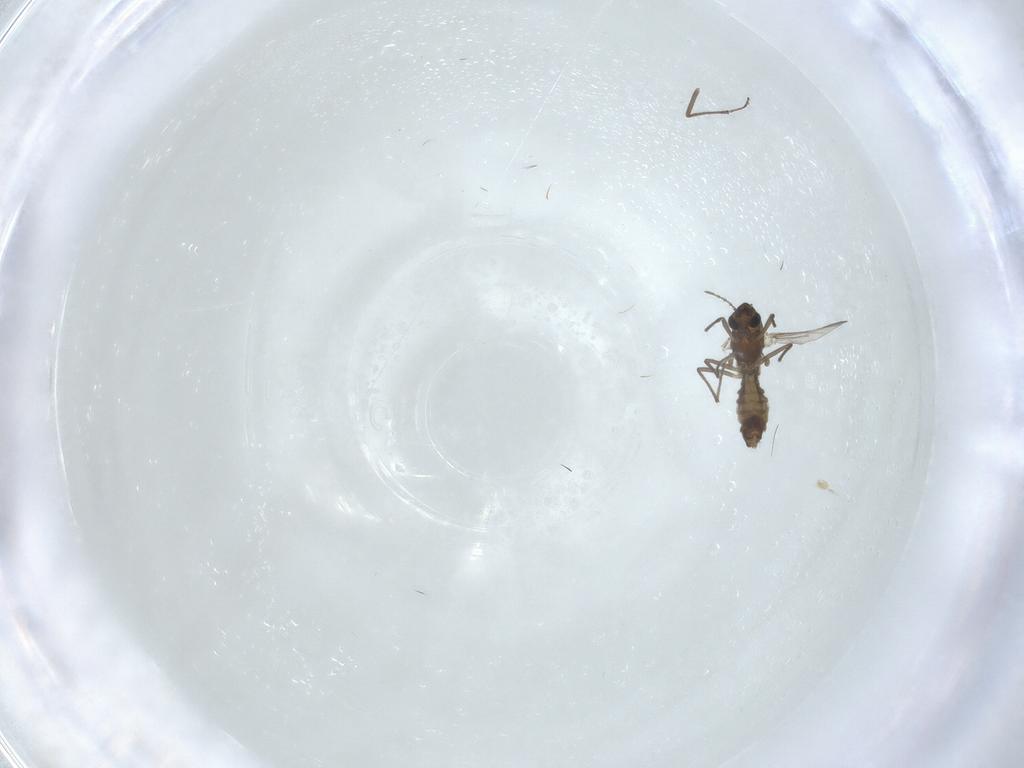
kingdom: Animalia
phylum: Arthropoda
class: Insecta
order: Diptera
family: Chironomidae
